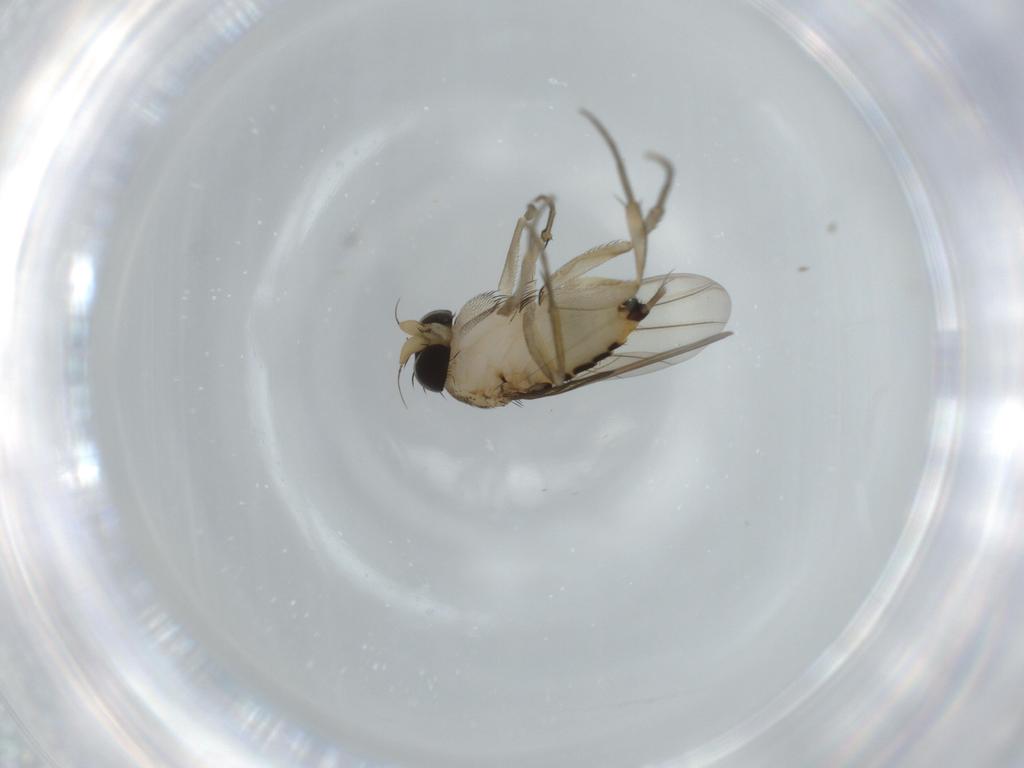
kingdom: Animalia
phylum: Arthropoda
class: Insecta
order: Diptera
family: Phoridae
